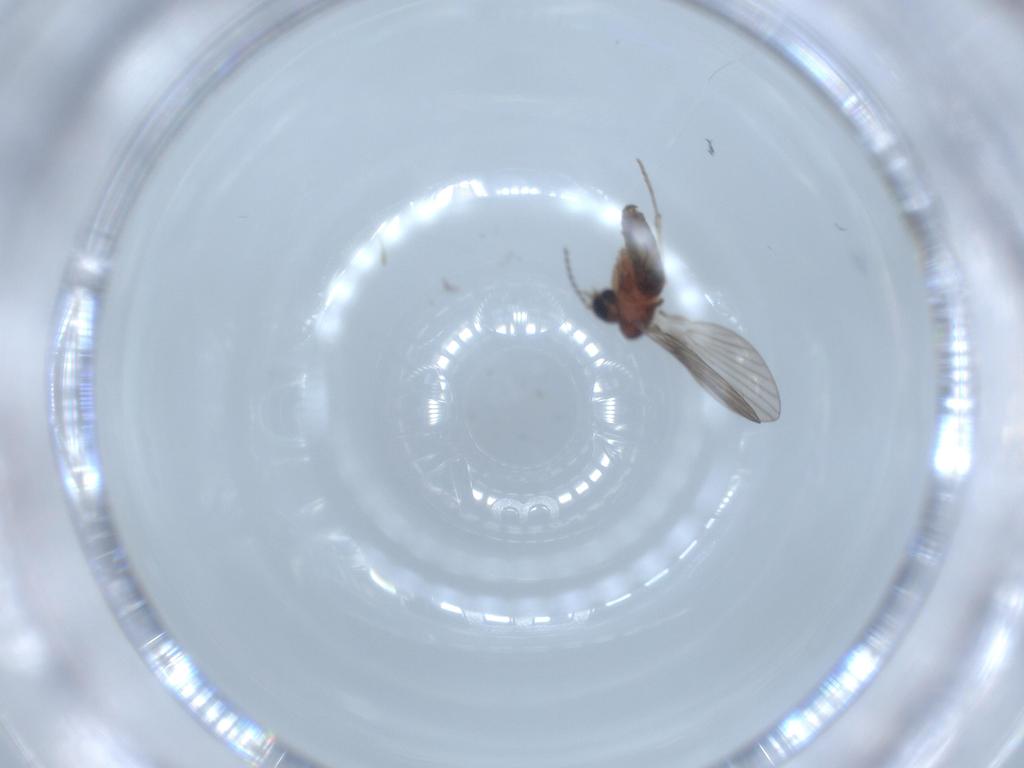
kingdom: Animalia
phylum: Arthropoda
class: Insecta
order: Diptera
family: Psychodidae
